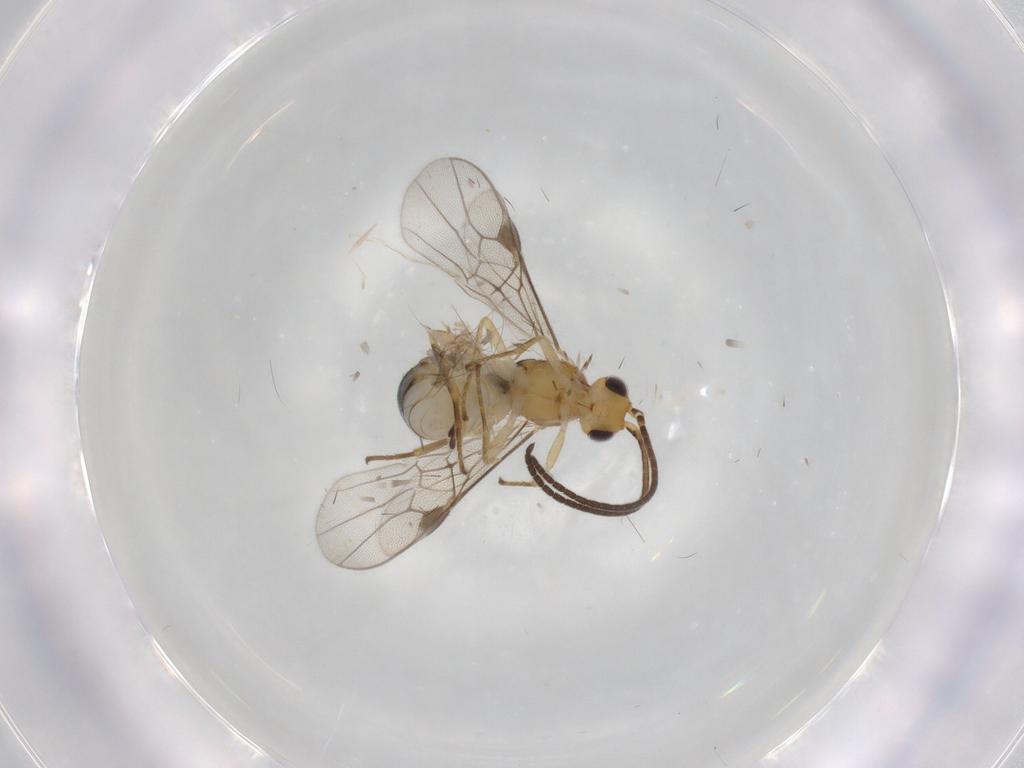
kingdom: Animalia
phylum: Arthropoda
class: Insecta
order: Hymenoptera
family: Braconidae
